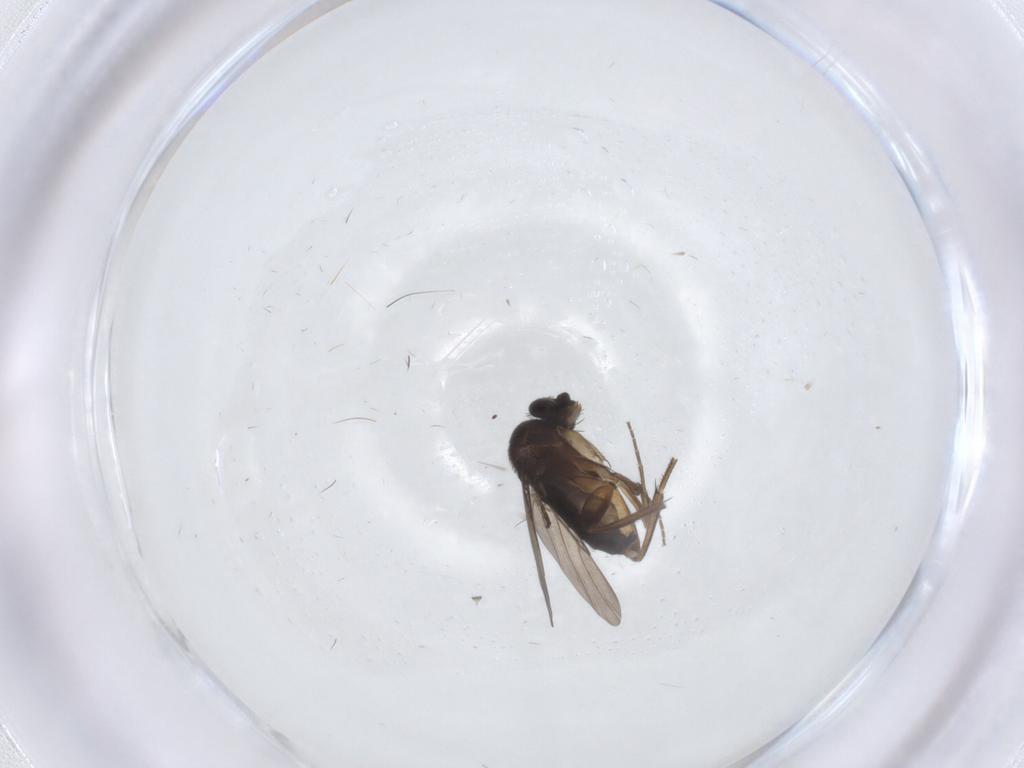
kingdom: Animalia
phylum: Arthropoda
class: Insecta
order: Diptera
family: Phoridae
